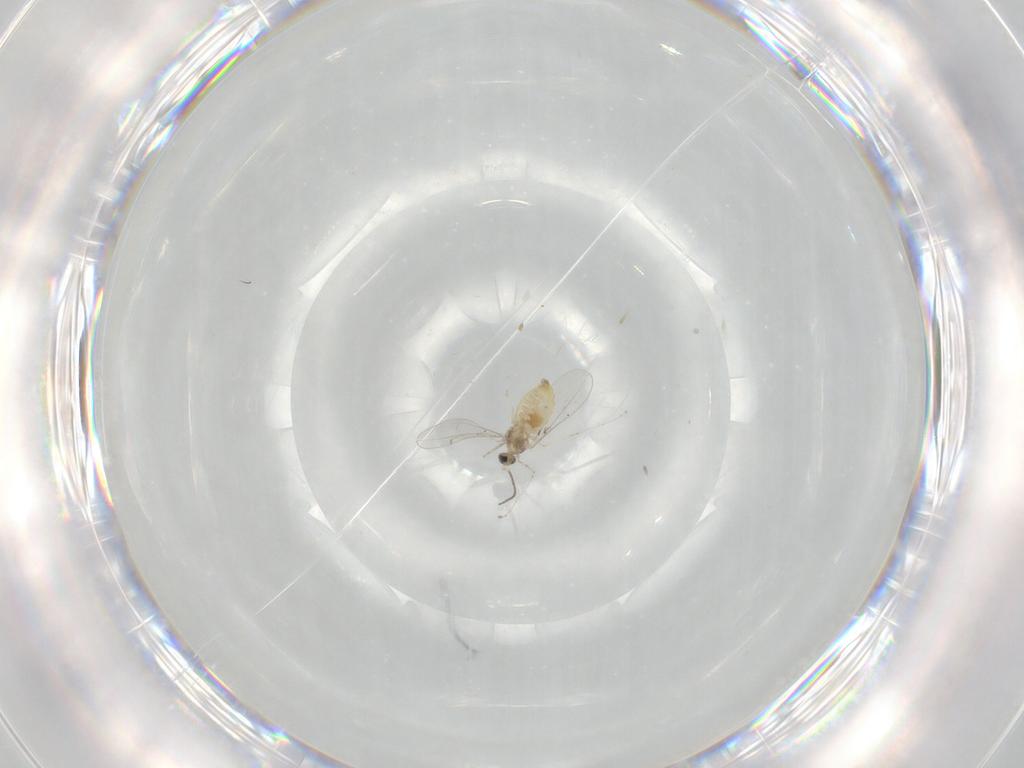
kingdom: Animalia
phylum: Arthropoda
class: Insecta
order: Diptera
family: Cecidomyiidae
